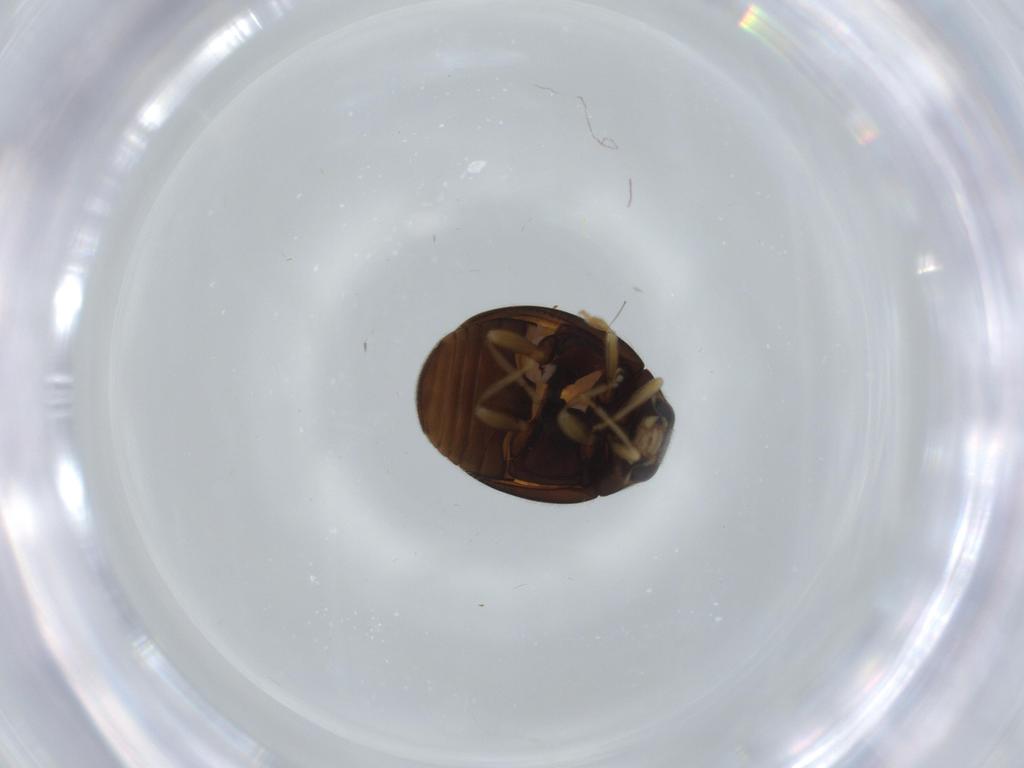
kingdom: Animalia
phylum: Arthropoda
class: Insecta
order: Coleoptera
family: Coccinellidae
